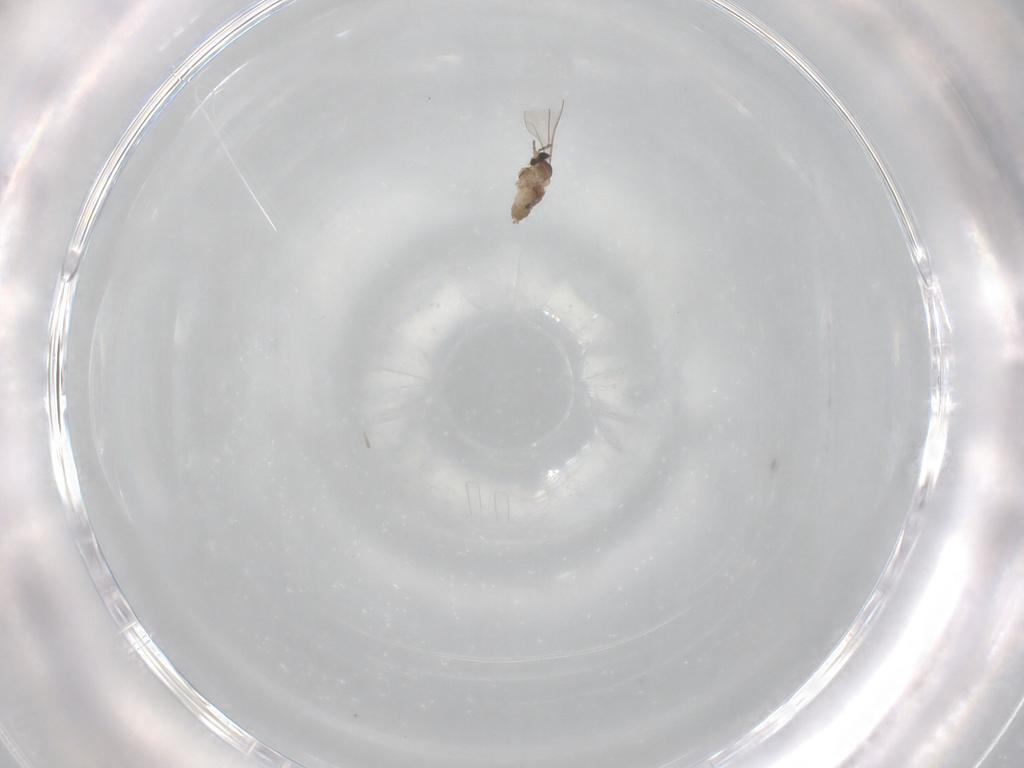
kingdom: Animalia
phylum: Arthropoda
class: Insecta
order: Diptera
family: Cecidomyiidae
